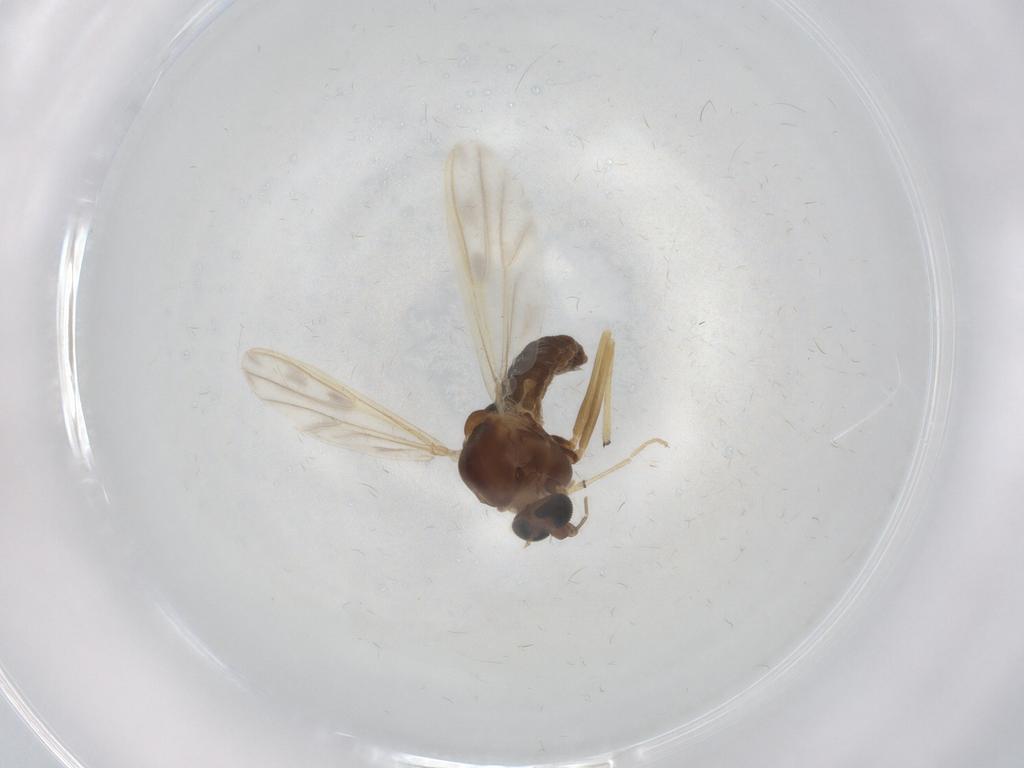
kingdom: Animalia
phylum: Arthropoda
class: Insecta
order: Diptera
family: Chironomidae
